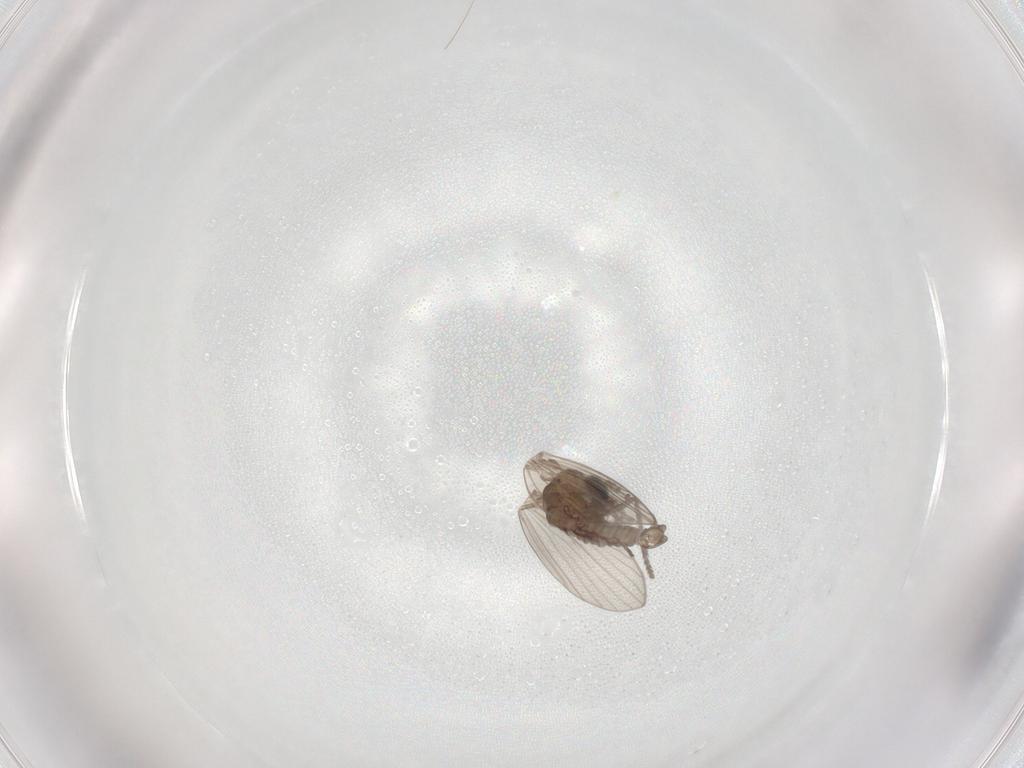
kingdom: Animalia
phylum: Arthropoda
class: Insecta
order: Diptera
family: Psychodidae
